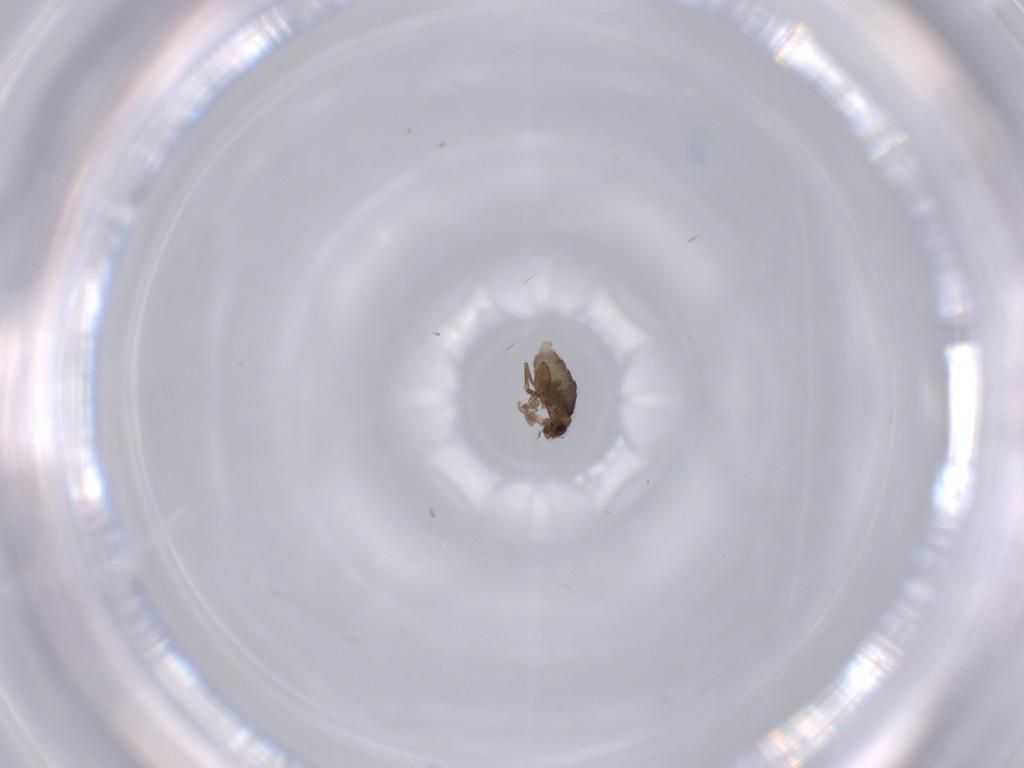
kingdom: Animalia
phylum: Arthropoda
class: Insecta
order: Diptera
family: Phoridae
